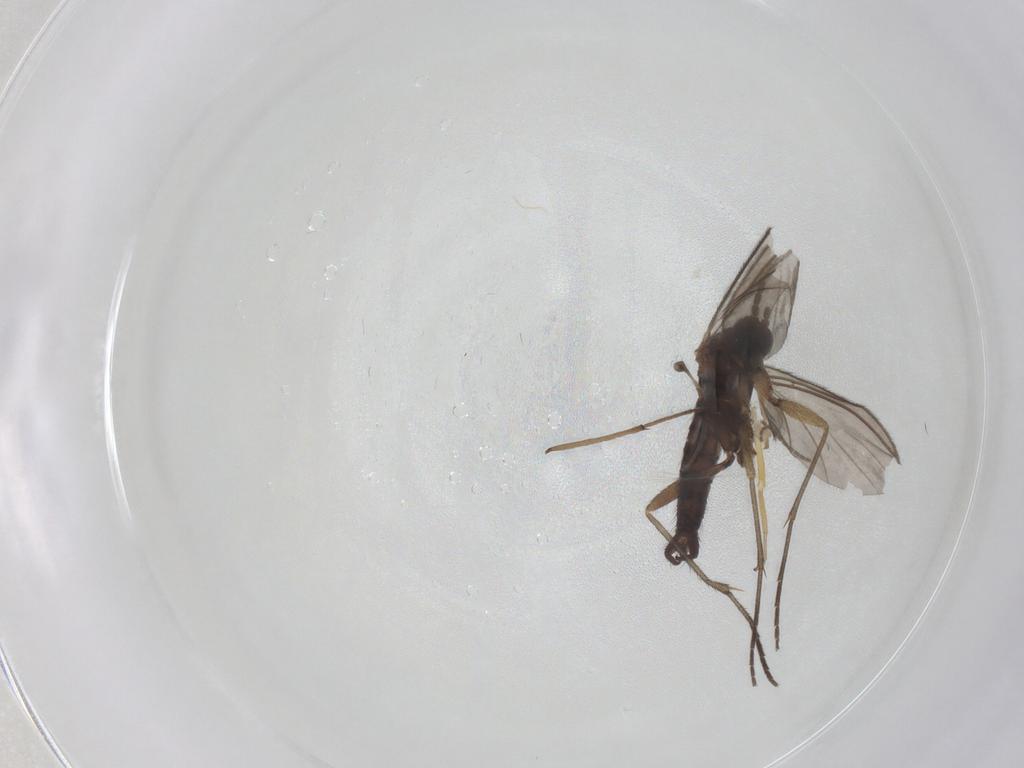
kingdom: Animalia
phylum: Arthropoda
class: Insecta
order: Diptera
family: Sciaridae
